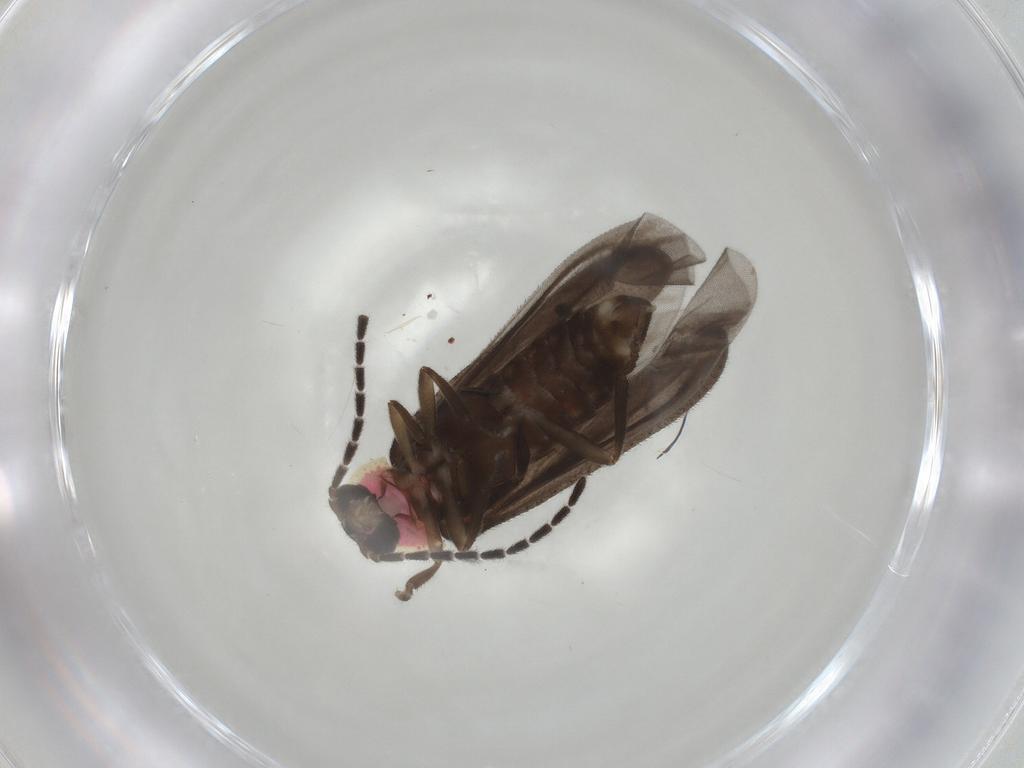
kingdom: Animalia
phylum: Arthropoda
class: Insecta
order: Coleoptera
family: Lampyridae
